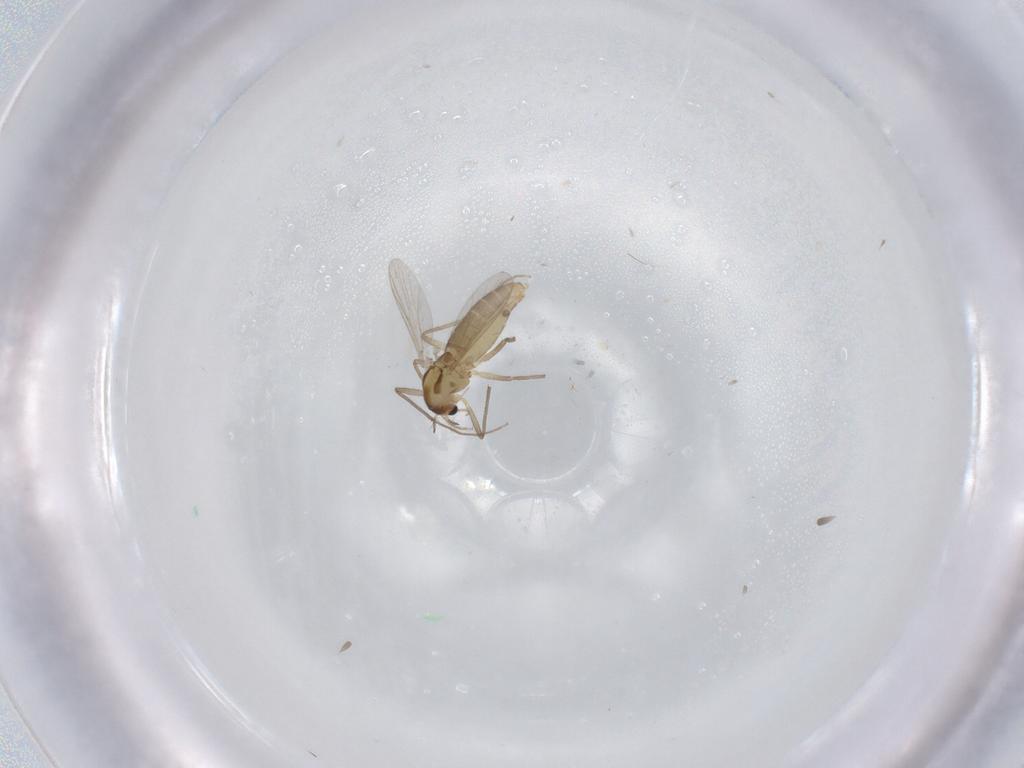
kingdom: Animalia
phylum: Arthropoda
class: Insecta
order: Diptera
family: Chironomidae
